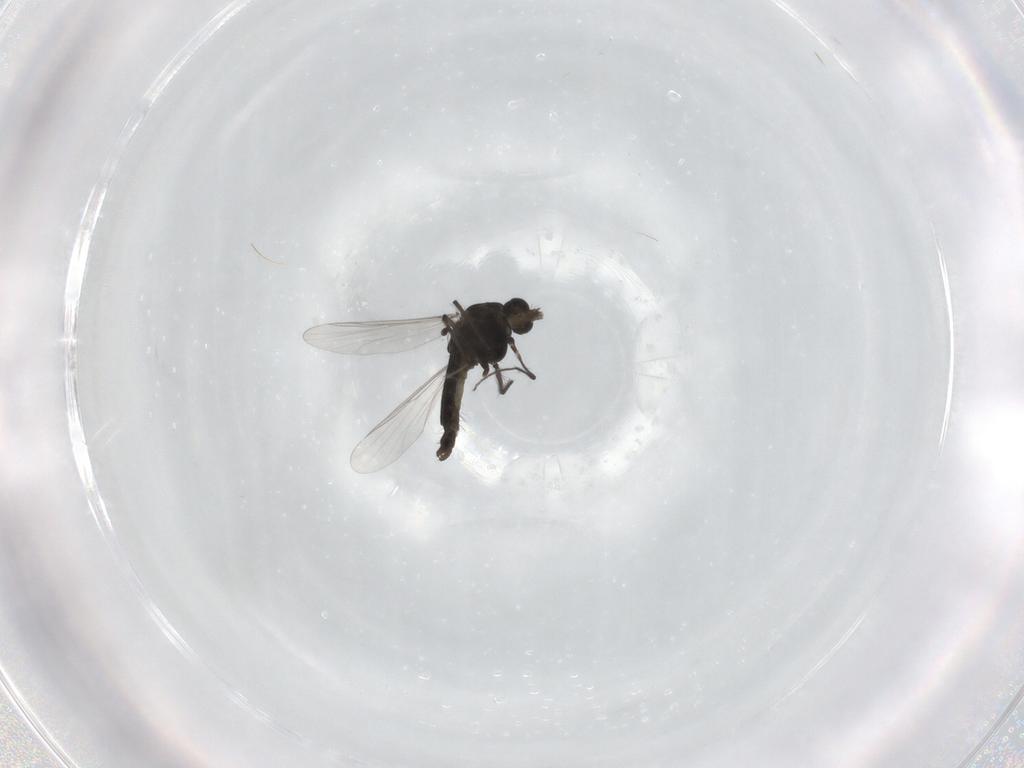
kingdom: Animalia
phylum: Arthropoda
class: Insecta
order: Diptera
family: Chironomidae
